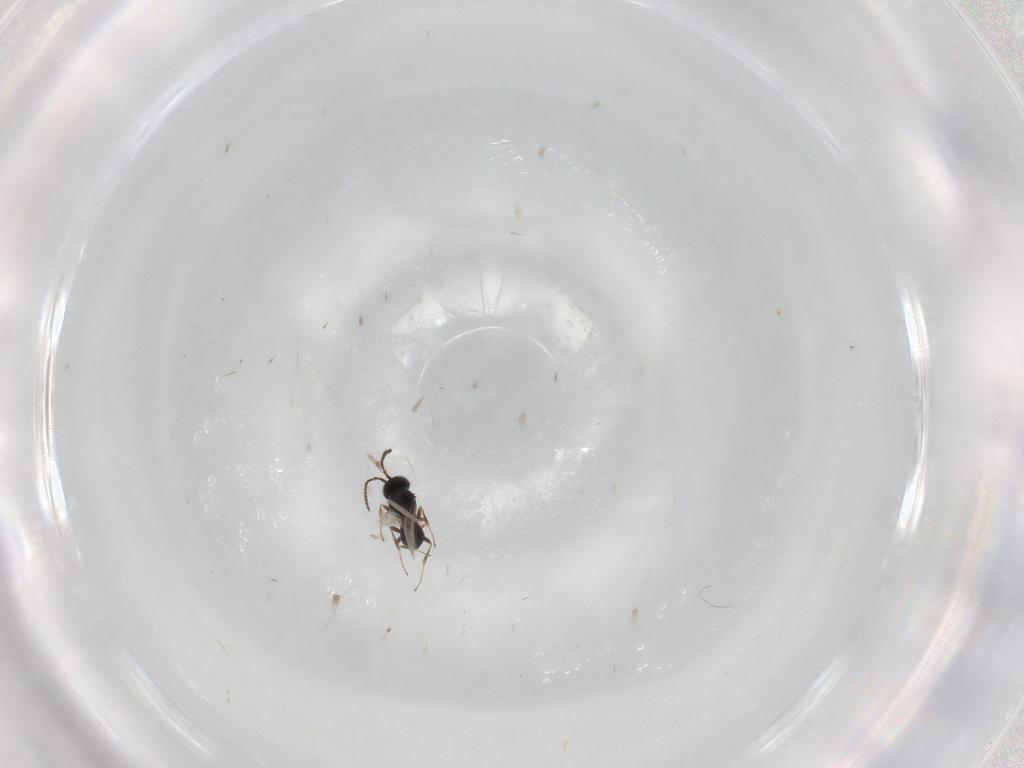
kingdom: Animalia
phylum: Arthropoda
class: Insecta
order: Hymenoptera
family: Scelionidae
